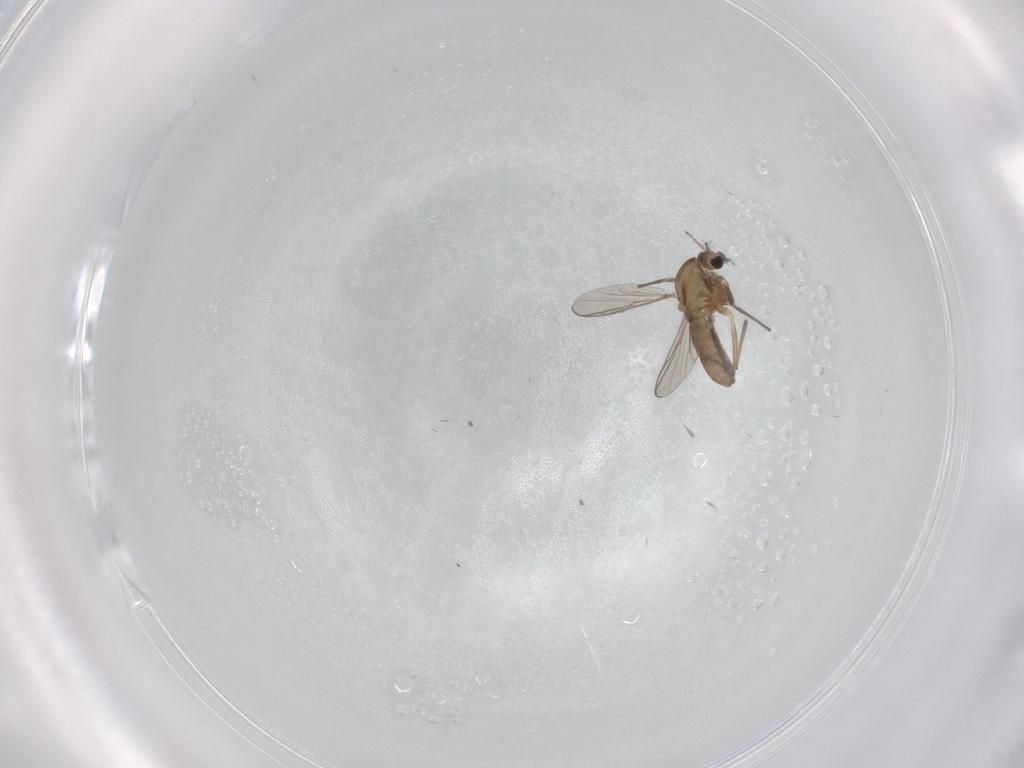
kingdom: Animalia
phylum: Arthropoda
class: Insecta
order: Diptera
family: Chironomidae
